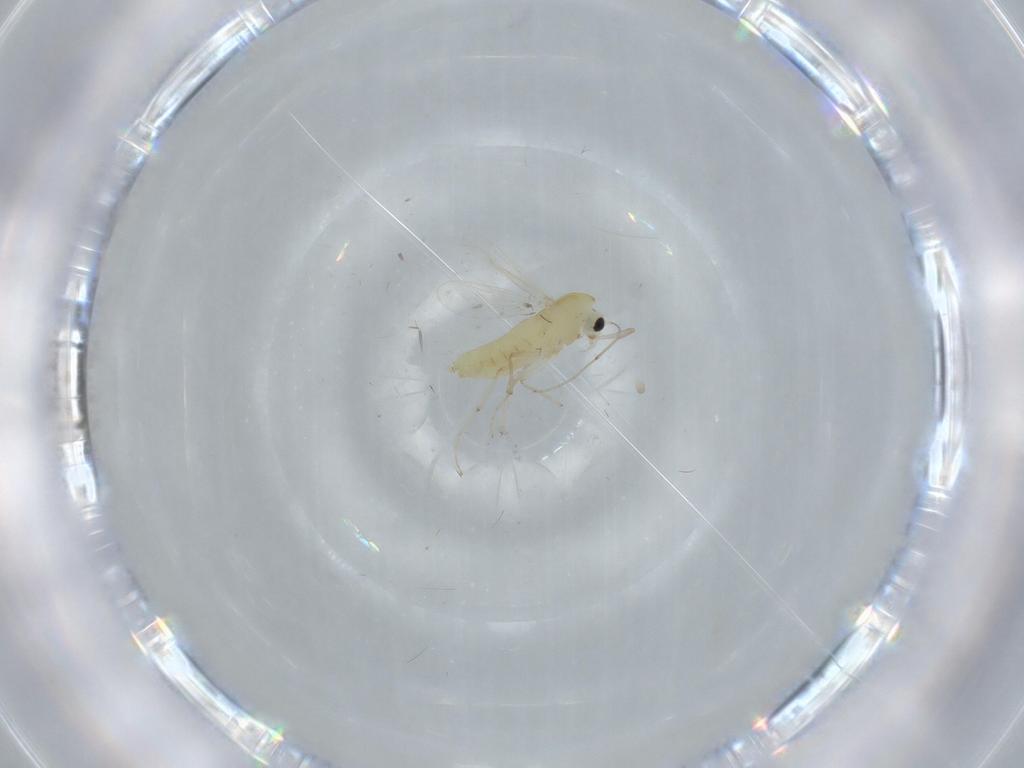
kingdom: Animalia
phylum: Arthropoda
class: Insecta
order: Diptera
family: Chironomidae
